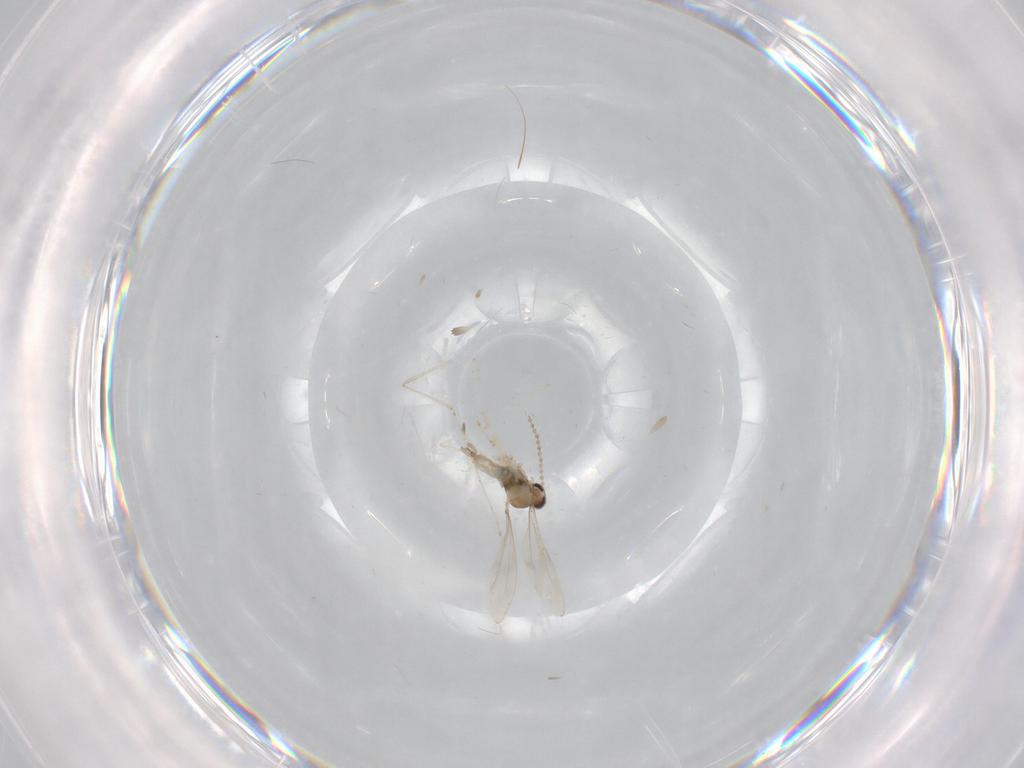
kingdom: Animalia
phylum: Arthropoda
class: Insecta
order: Diptera
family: Cecidomyiidae
